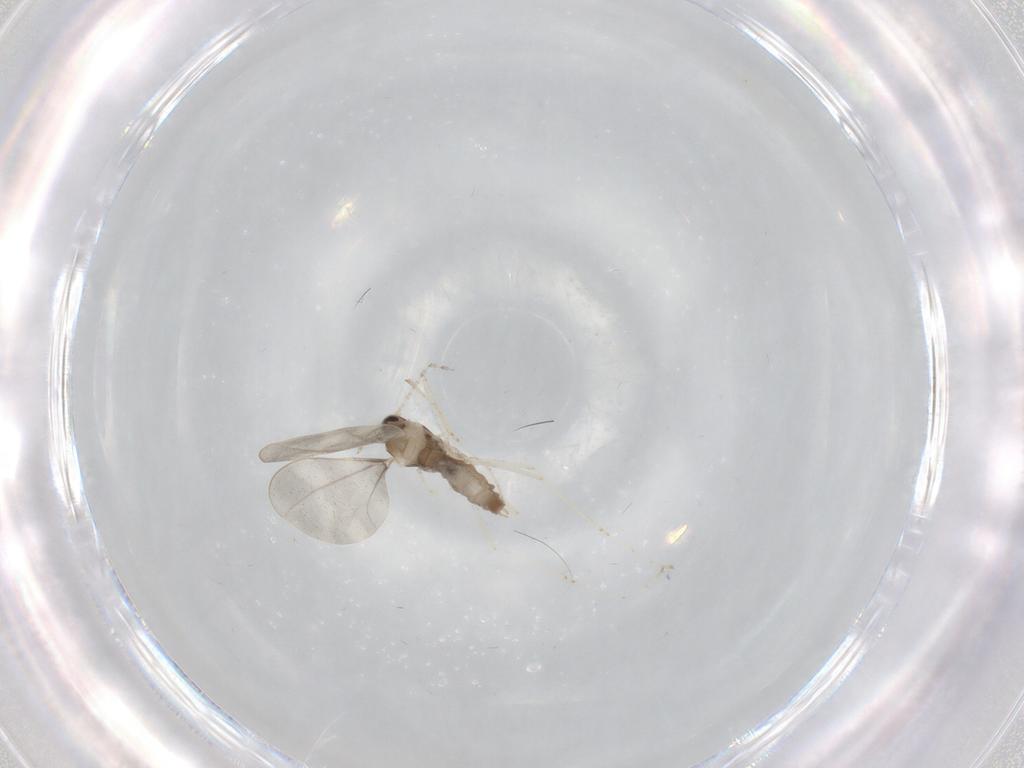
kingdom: Animalia
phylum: Arthropoda
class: Insecta
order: Diptera
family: Cecidomyiidae
